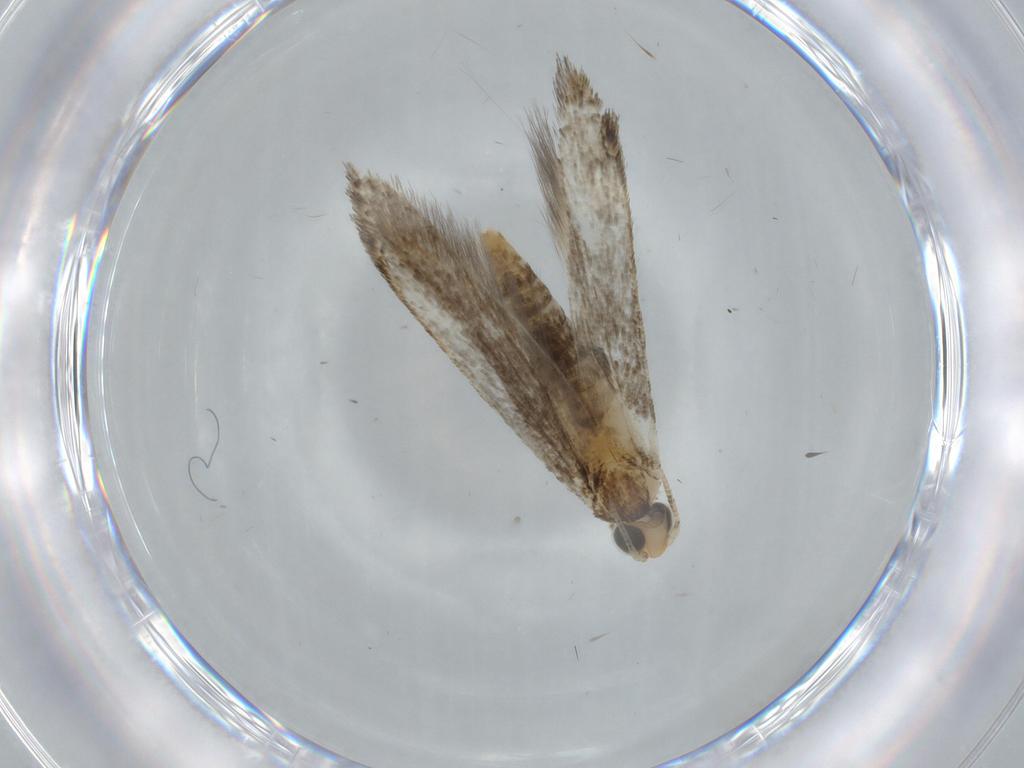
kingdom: Animalia
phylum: Arthropoda
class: Insecta
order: Lepidoptera
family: Tineidae
